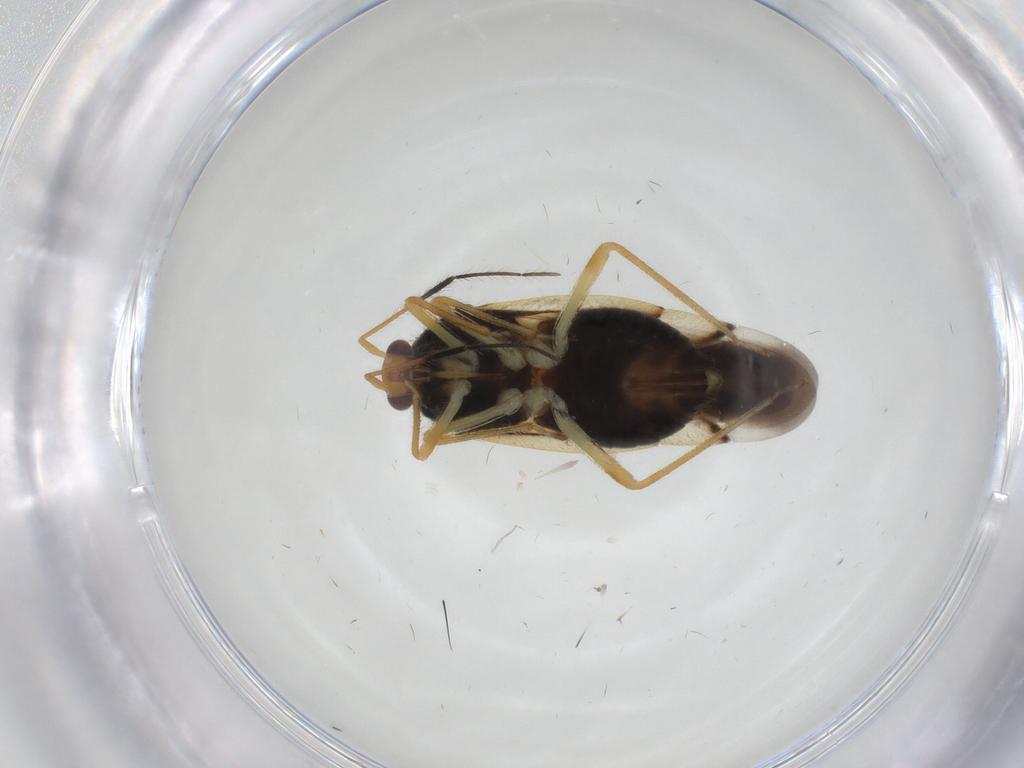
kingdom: Animalia
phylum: Arthropoda
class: Insecta
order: Hemiptera
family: Miridae
